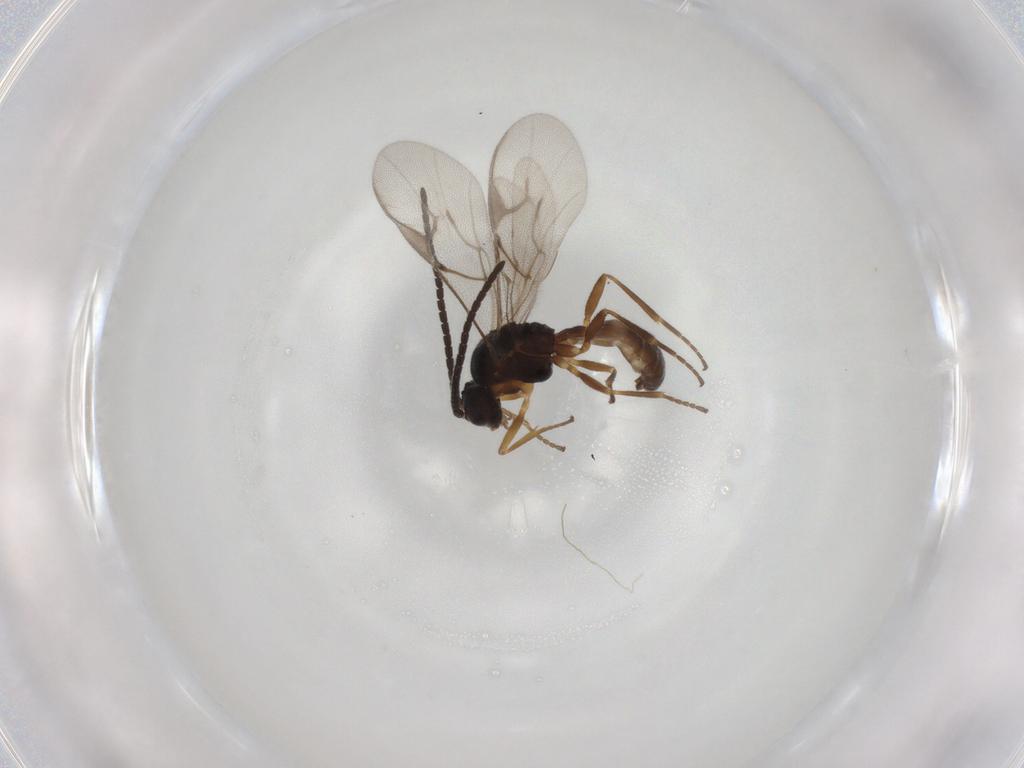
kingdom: Animalia
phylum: Arthropoda
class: Insecta
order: Hymenoptera
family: Braconidae
